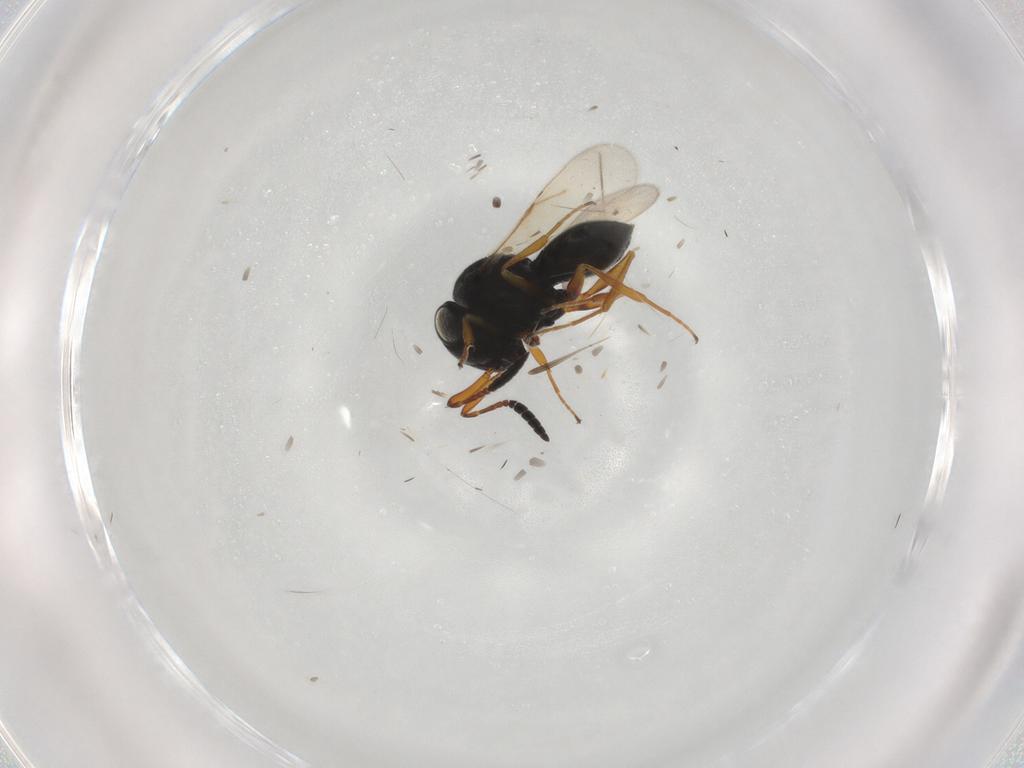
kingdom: Animalia
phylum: Arthropoda
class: Insecta
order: Hymenoptera
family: Scelionidae
